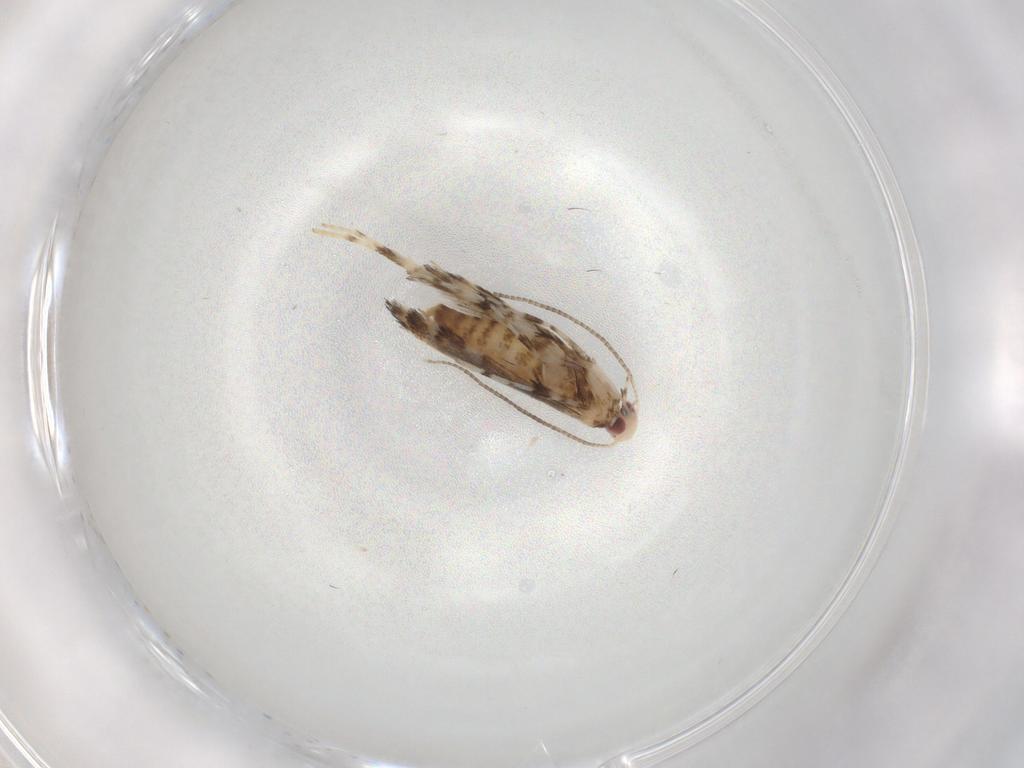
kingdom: Animalia
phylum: Arthropoda
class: Insecta
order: Lepidoptera
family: Gracillariidae
